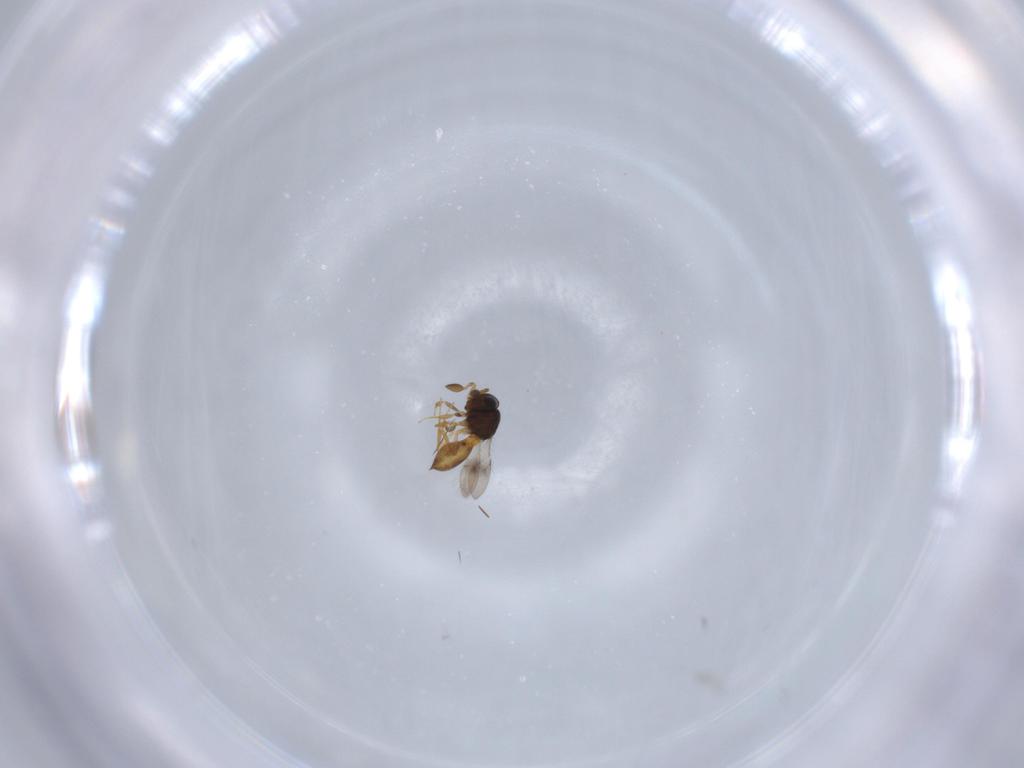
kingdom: Animalia
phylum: Arthropoda
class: Insecta
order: Hymenoptera
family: Scelionidae
